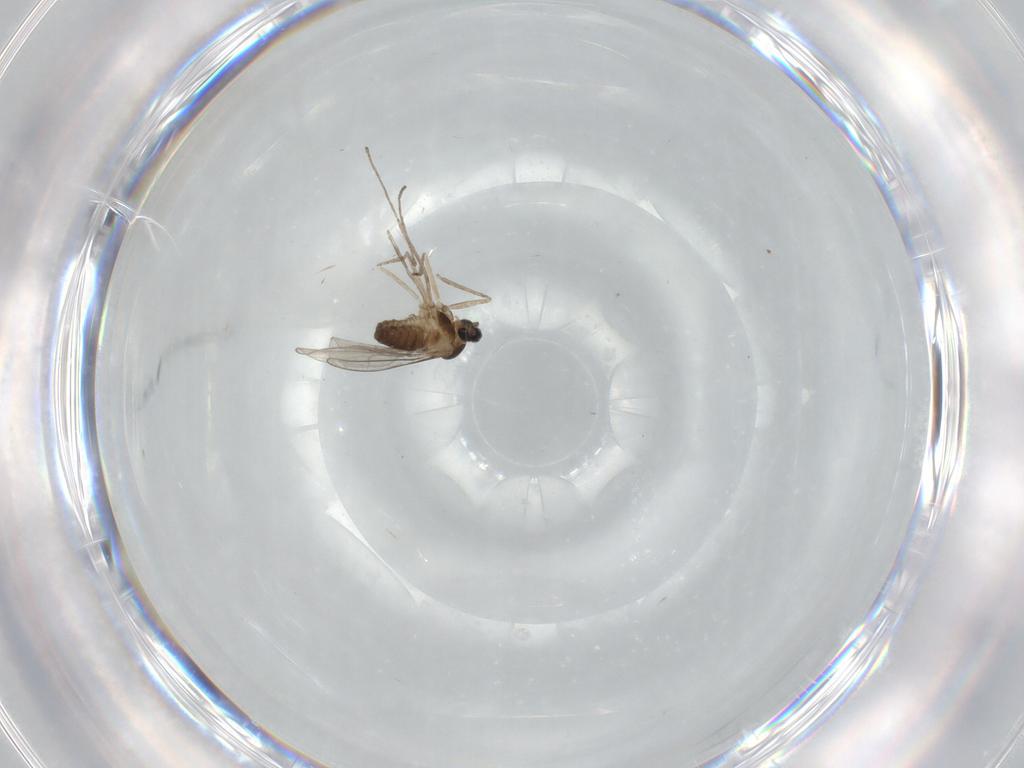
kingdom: Animalia
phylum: Arthropoda
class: Insecta
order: Diptera
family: Cecidomyiidae
